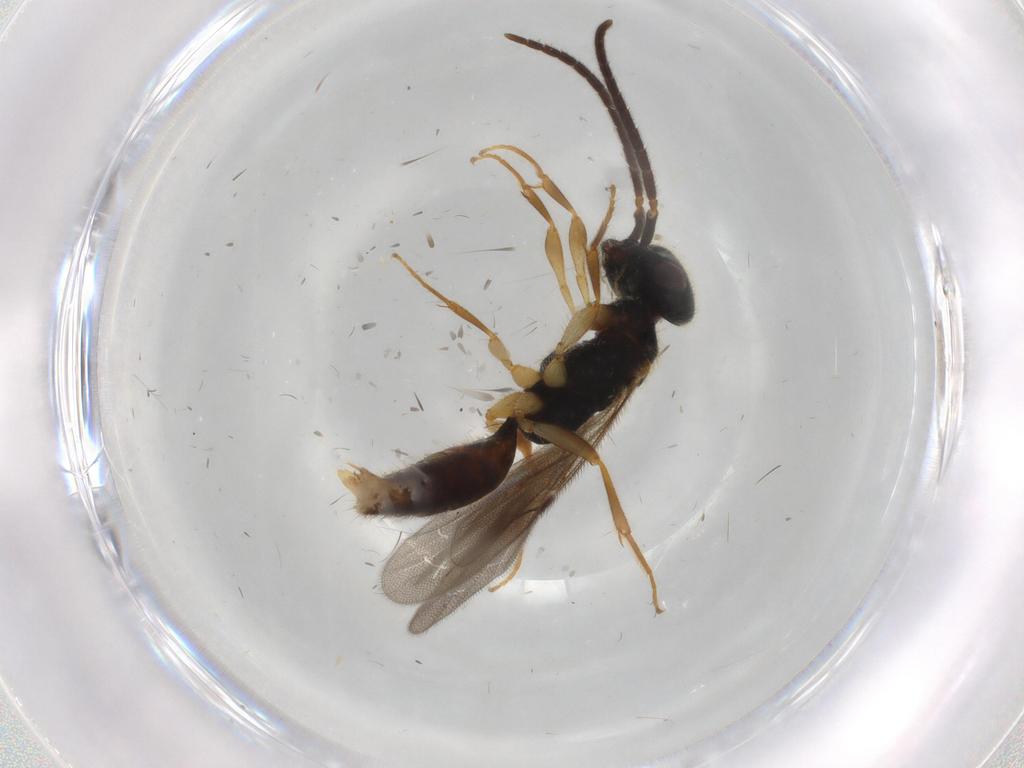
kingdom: Animalia
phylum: Arthropoda
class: Insecta
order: Hymenoptera
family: Bethylidae
